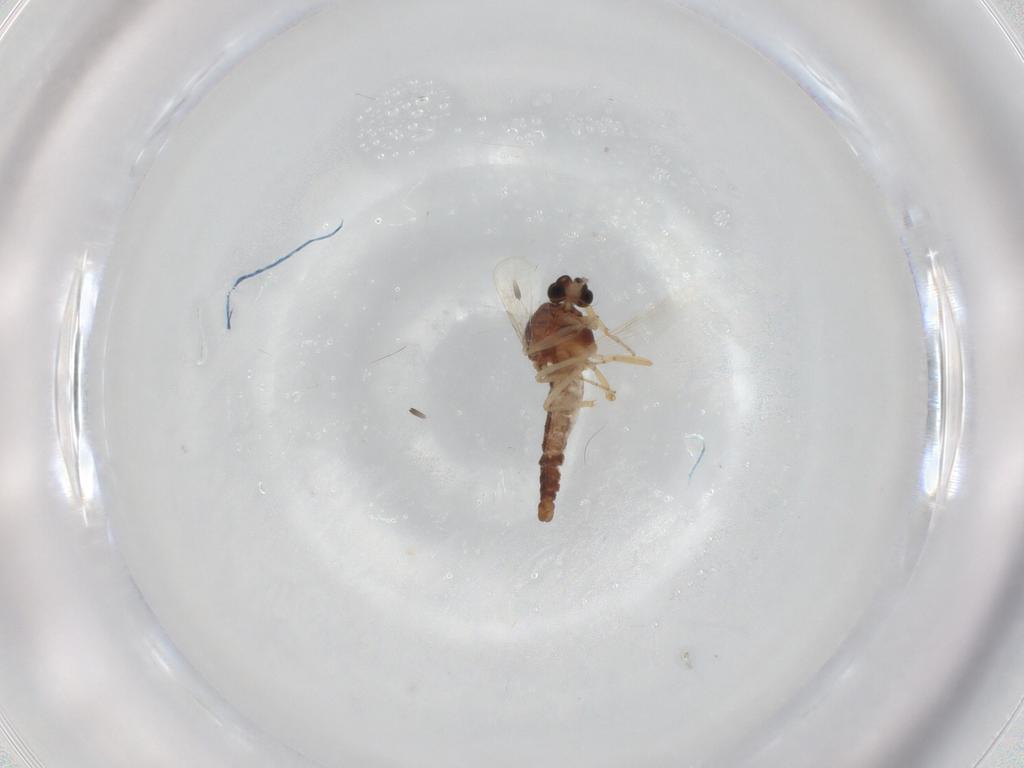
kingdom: Animalia
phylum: Arthropoda
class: Insecta
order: Diptera
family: Ceratopogonidae
